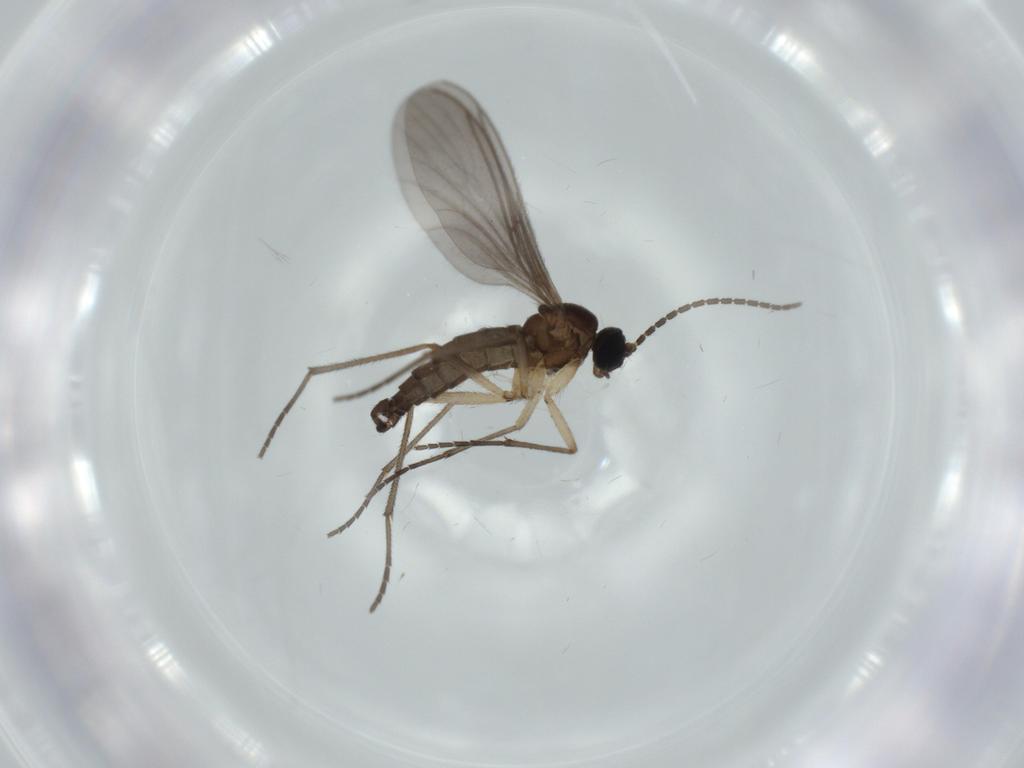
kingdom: Animalia
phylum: Arthropoda
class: Insecta
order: Diptera
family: Sciaridae
